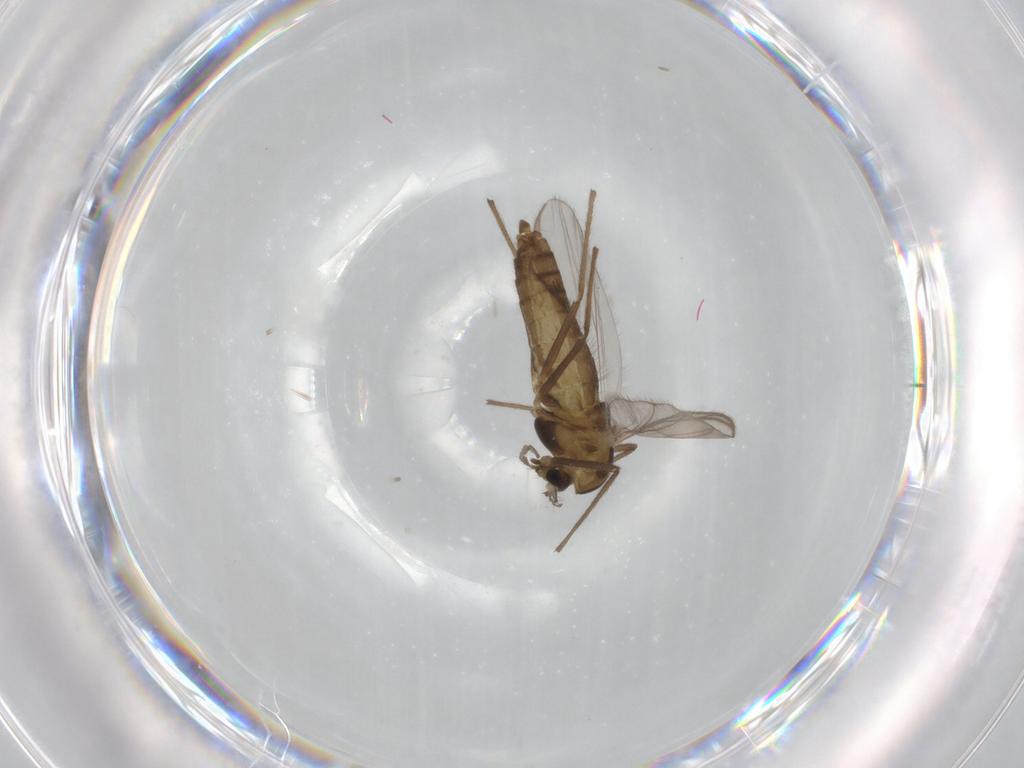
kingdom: Animalia
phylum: Arthropoda
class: Insecta
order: Diptera
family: Chironomidae
